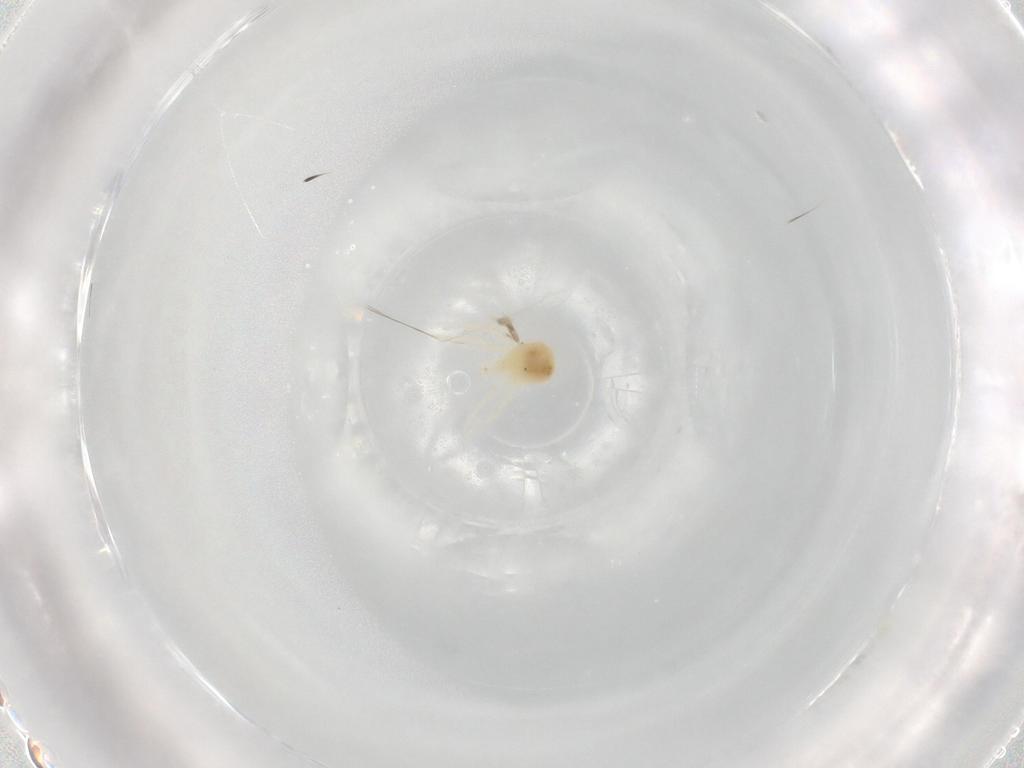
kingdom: Animalia
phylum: Arthropoda
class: Arachnida
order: Trombidiformes
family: Anystidae
